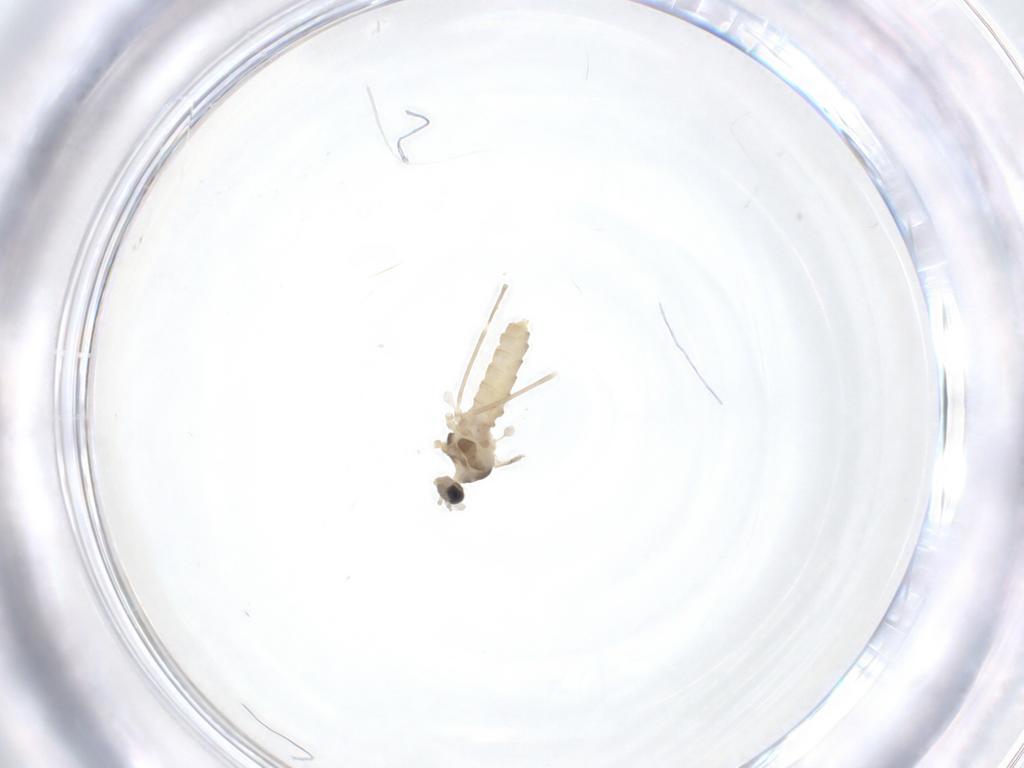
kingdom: Animalia
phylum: Arthropoda
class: Insecta
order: Diptera
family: Cecidomyiidae
